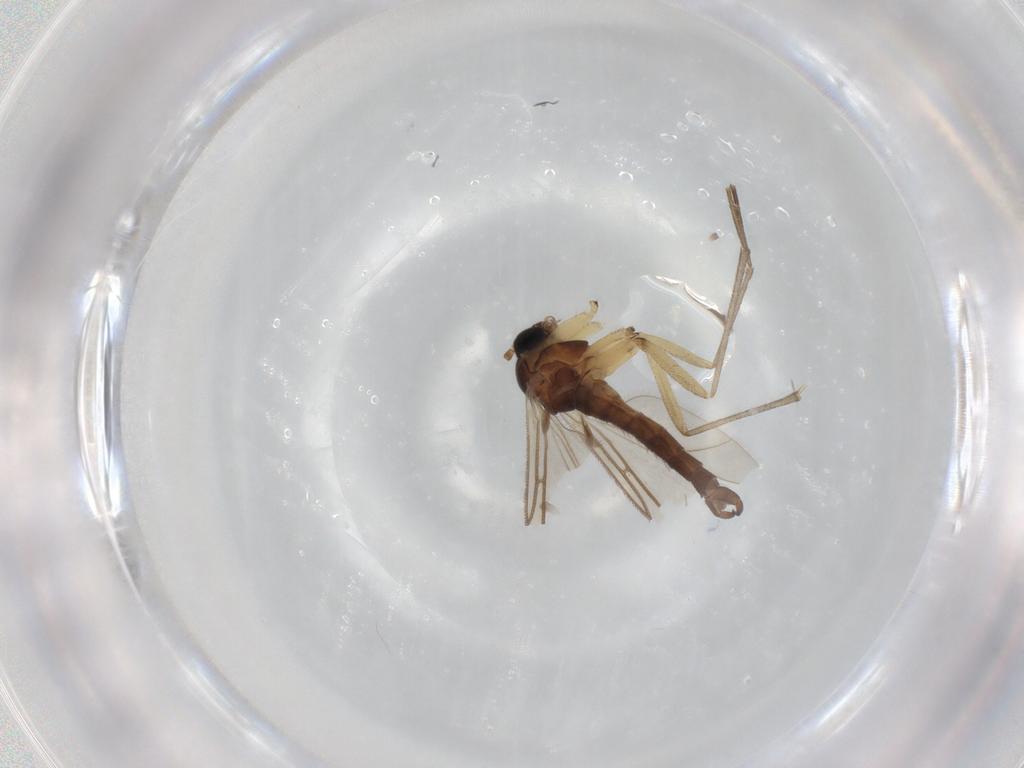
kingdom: Animalia
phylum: Arthropoda
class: Insecta
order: Diptera
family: Sciaridae
